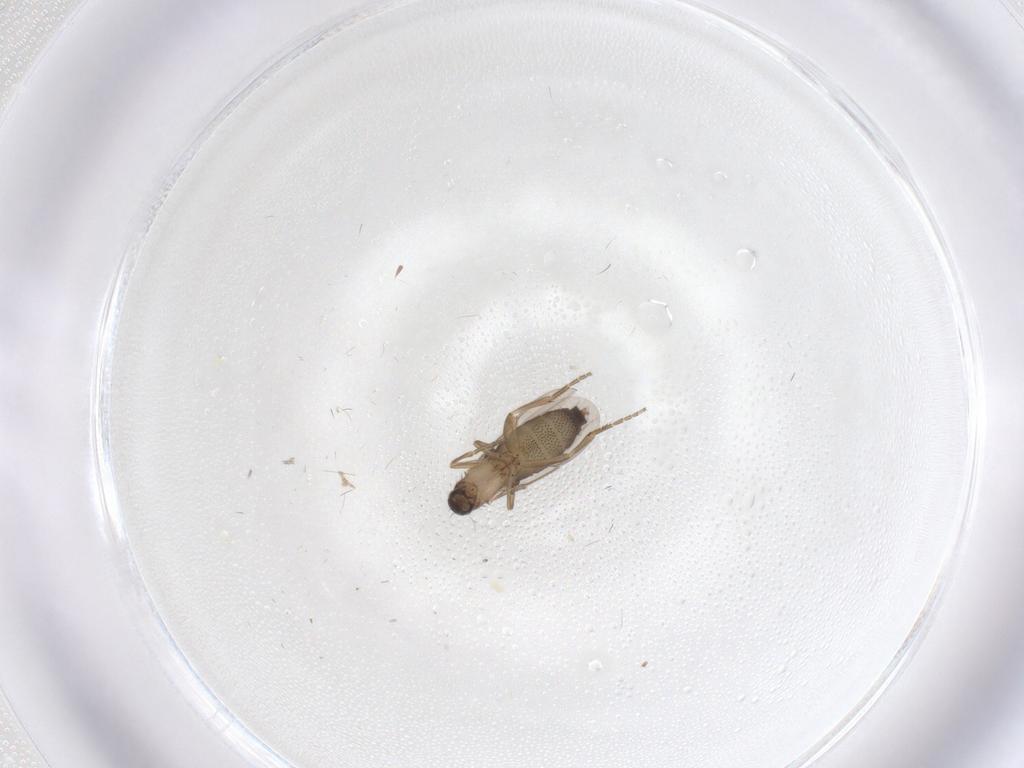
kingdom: Animalia
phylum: Arthropoda
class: Insecta
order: Diptera
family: Phoridae
